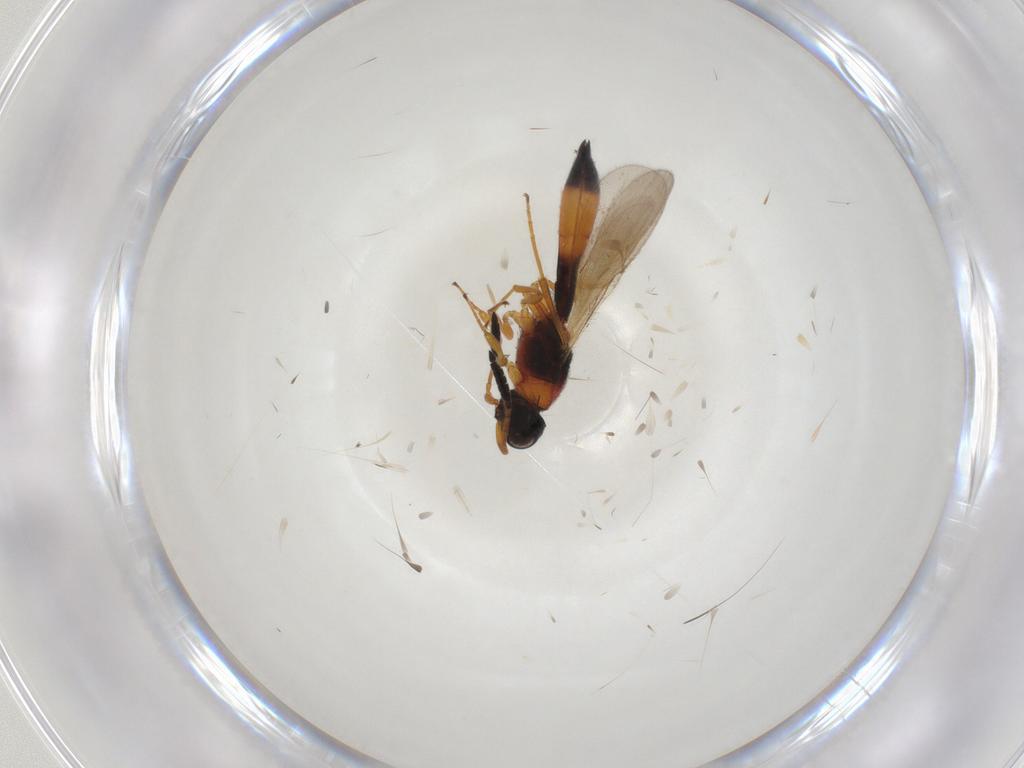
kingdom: Animalia
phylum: Arthropoda
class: Insecta
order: Hymenoptera
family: Scelionidae
